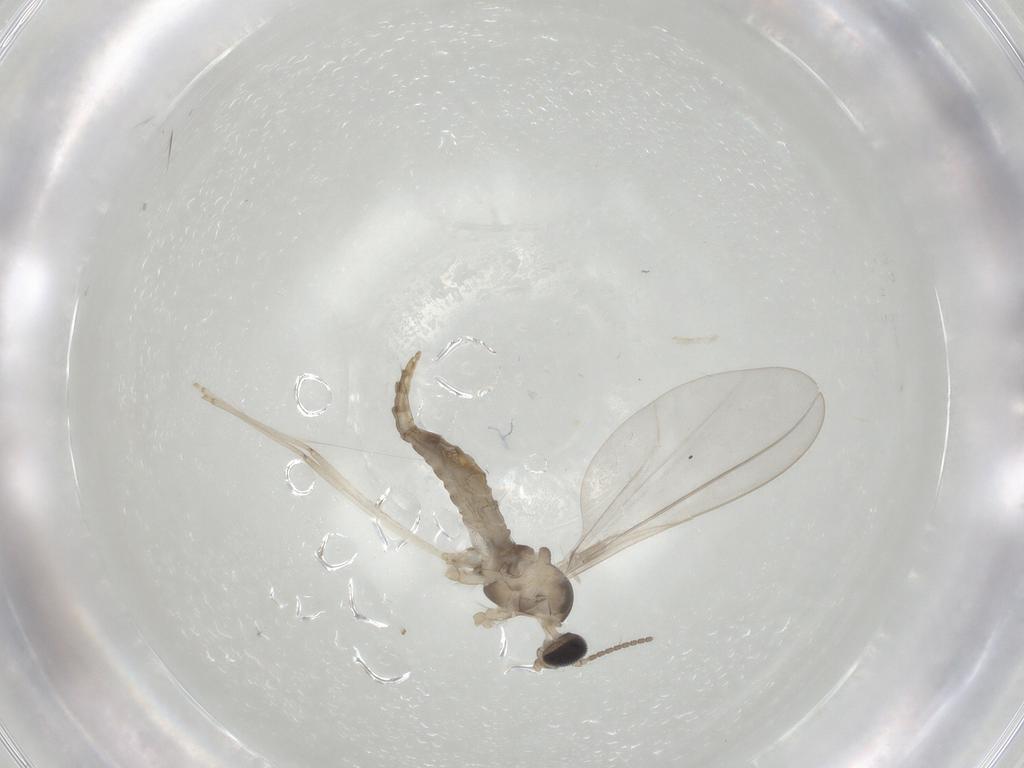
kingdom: Animalia
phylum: Arthropoda
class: Insecta
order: Diptera
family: Cecidomyiidae
